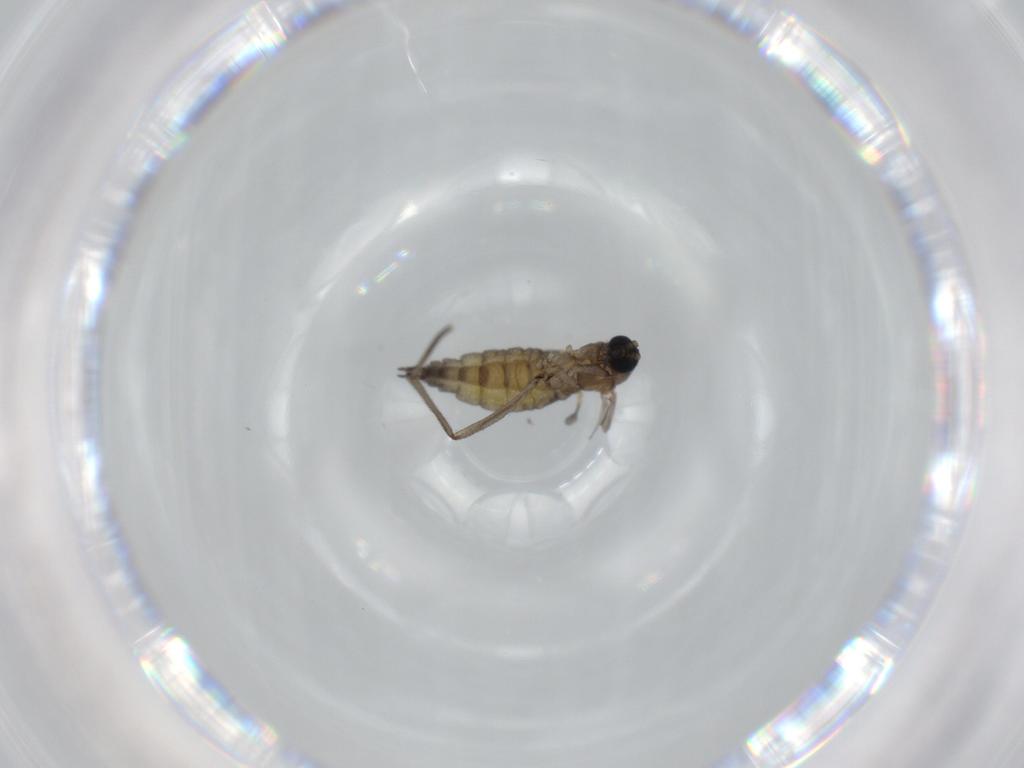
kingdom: Animalia
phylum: Arthropoda
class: Insecta
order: Diptera
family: Sciaridae
